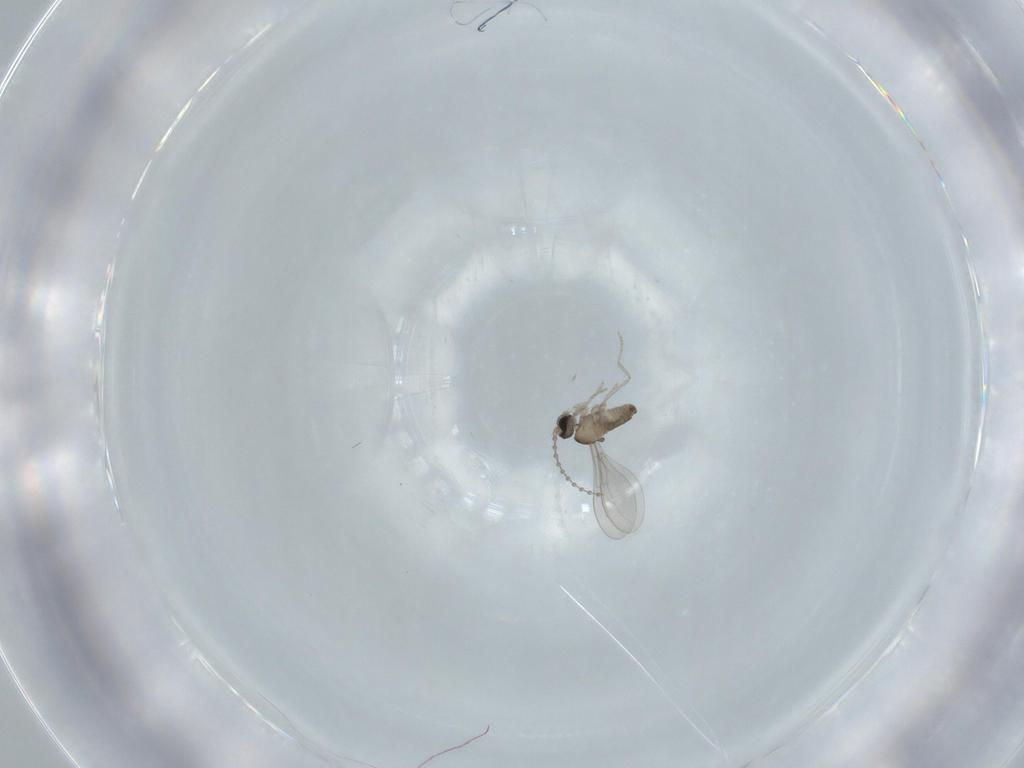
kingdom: Animalia
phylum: Arthropoda
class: Insecta
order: Diptera
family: Cecidomyiidae
